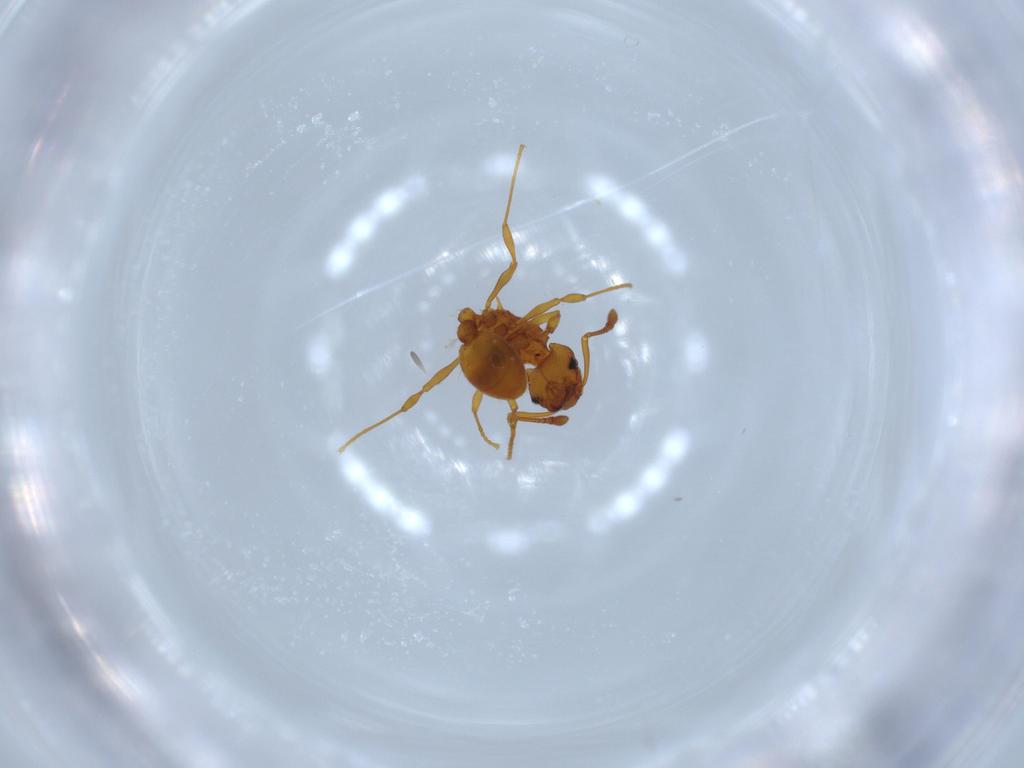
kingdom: Animalia
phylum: Arthropoda
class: Insecta
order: Hymenoptera
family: Formicidae
